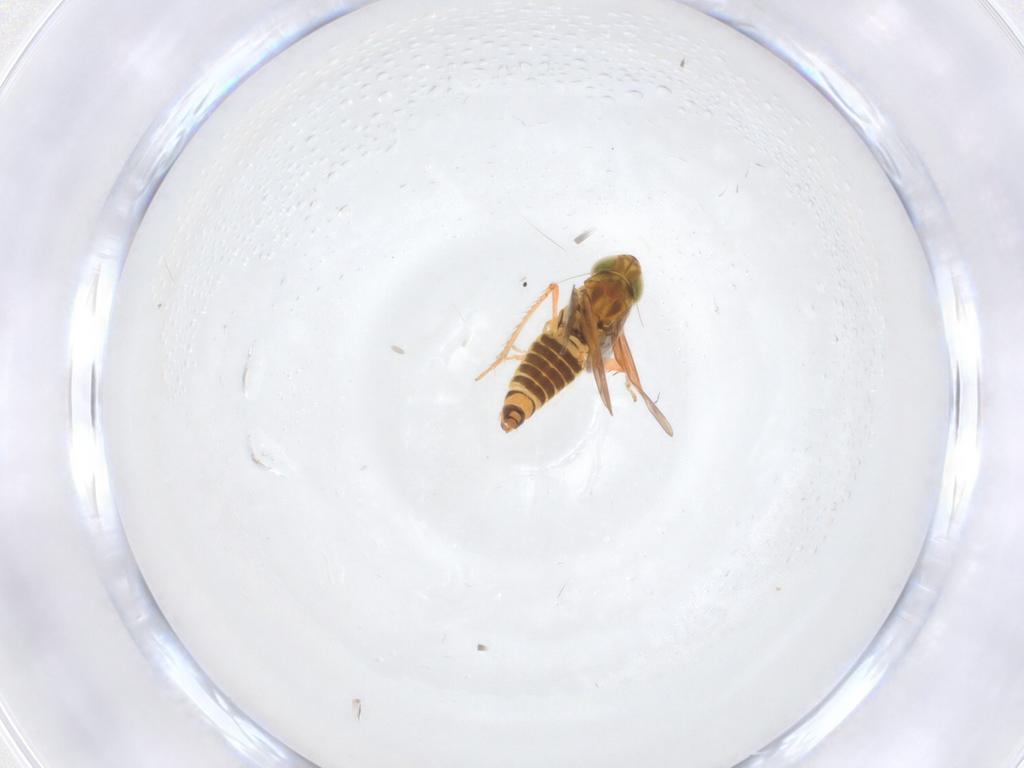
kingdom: Animalia
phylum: Arthropoda
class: Insecta
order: Hemiptera
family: Cicadellidae
